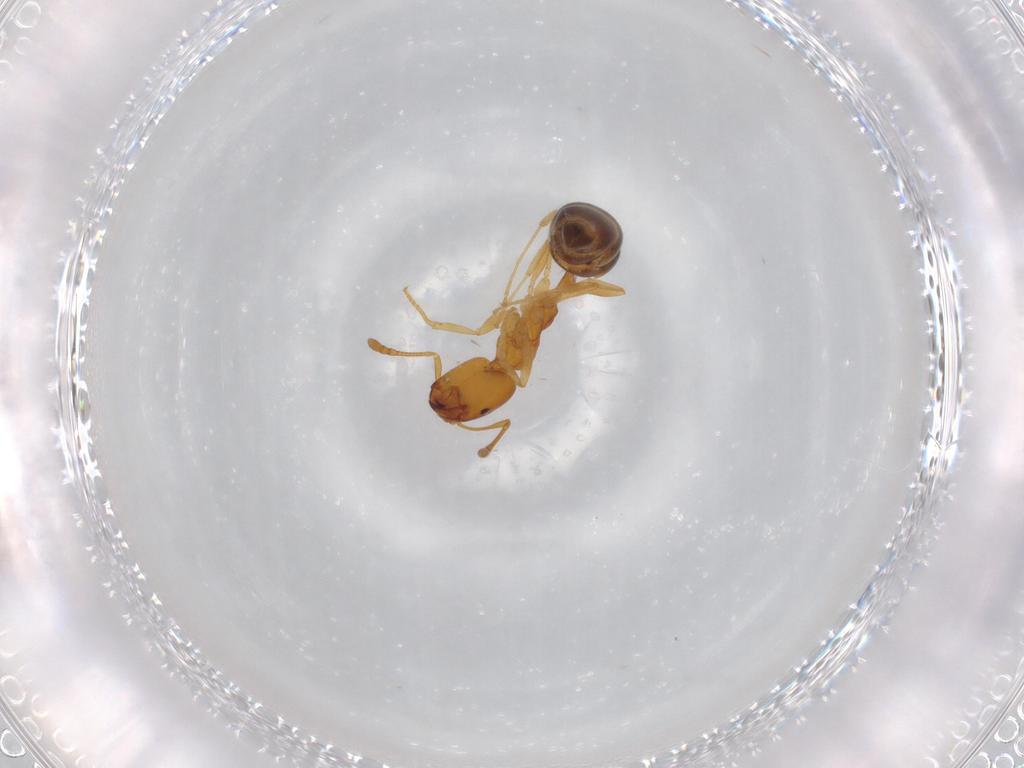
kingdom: Animalia
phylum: Arthropoda
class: Insecta
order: Hymenoptera
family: Formicidae
